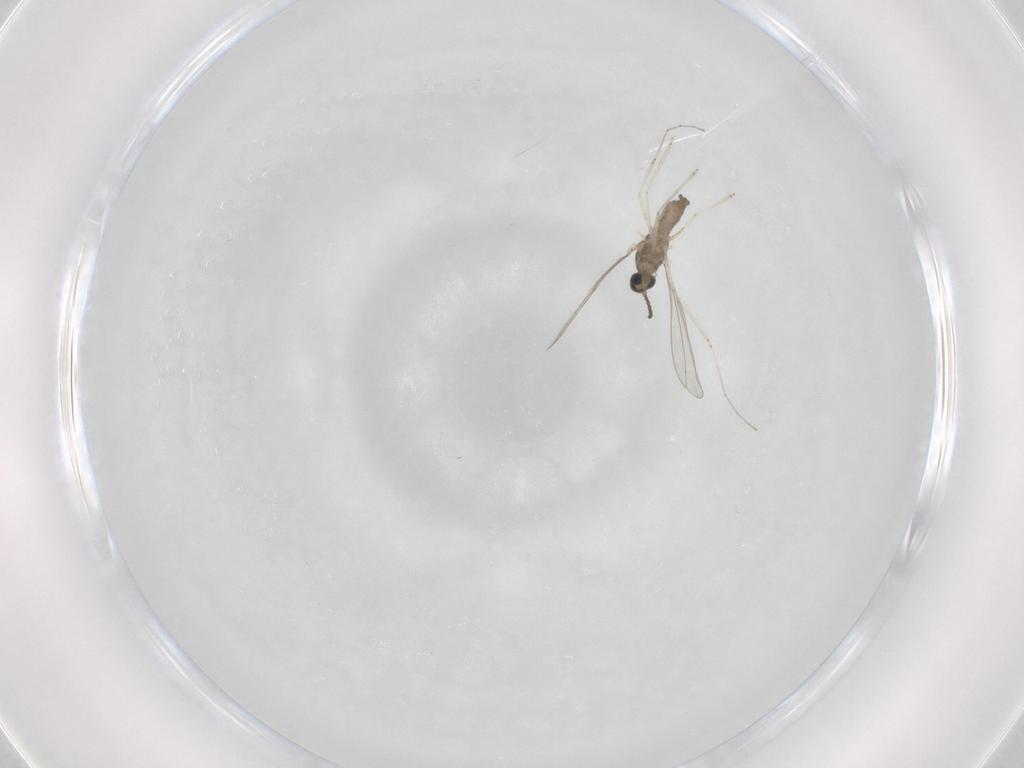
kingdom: Animalia
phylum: Arthropoda
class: Insecta
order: Diptera
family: Cecidomyiidae
